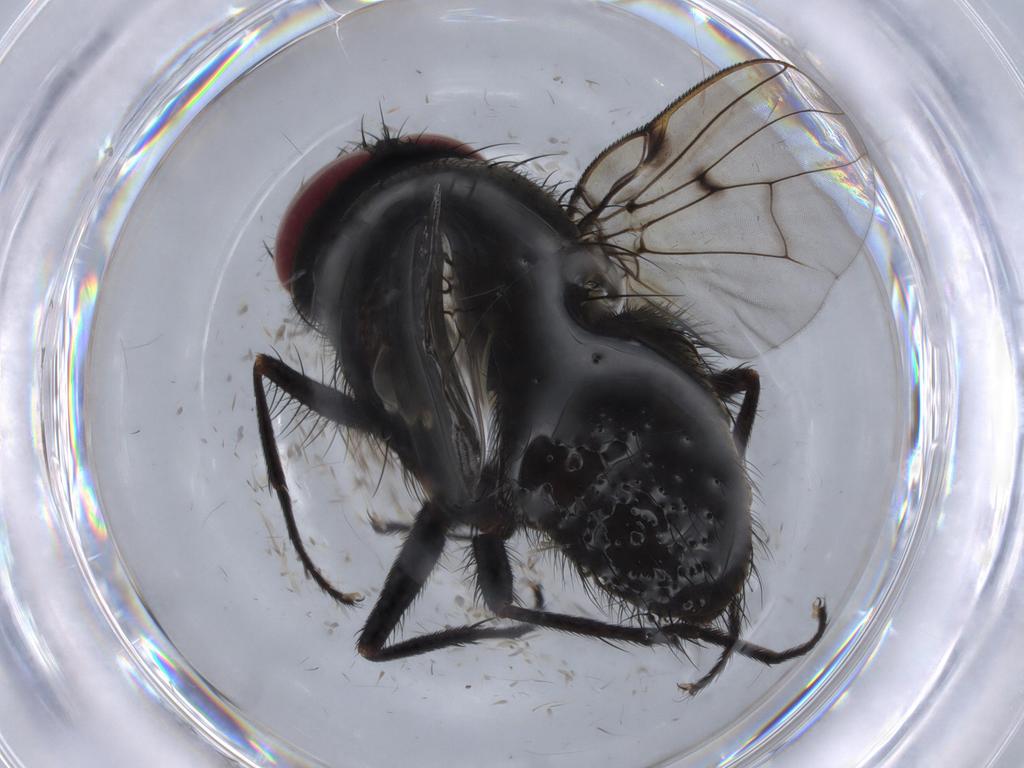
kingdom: Animalia
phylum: Arthropoda
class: Insecta
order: Diptera
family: Muscidae
